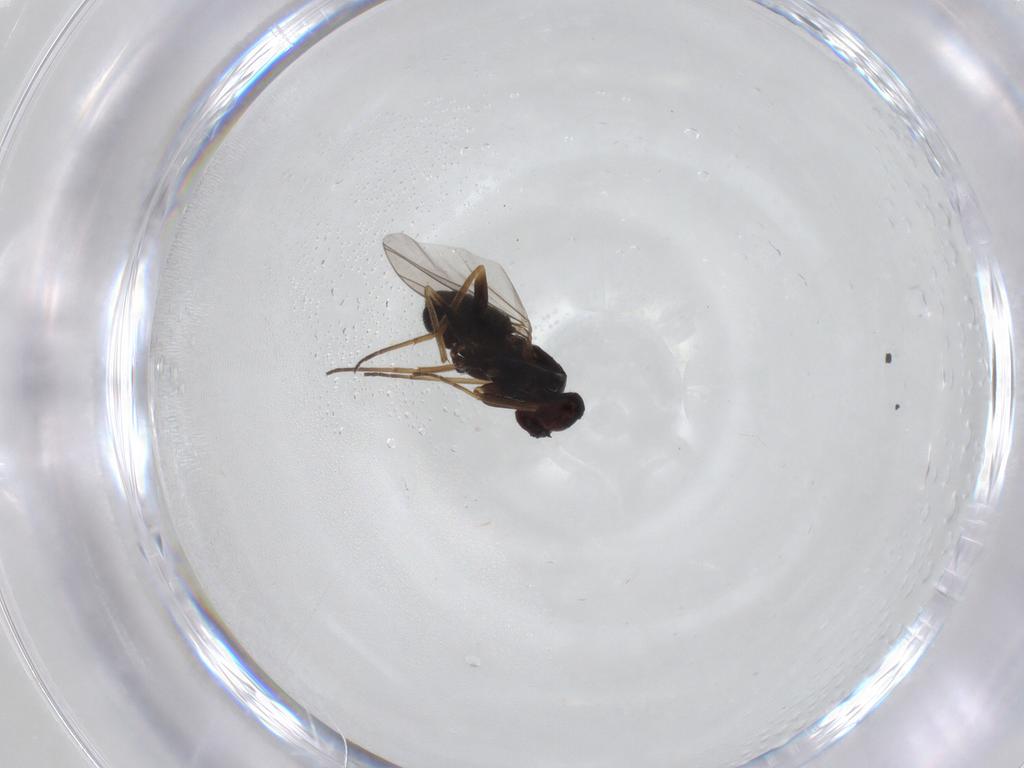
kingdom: Animalia
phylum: Arthropoda
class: Insecta
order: Diptera
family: Dolichopodidae
